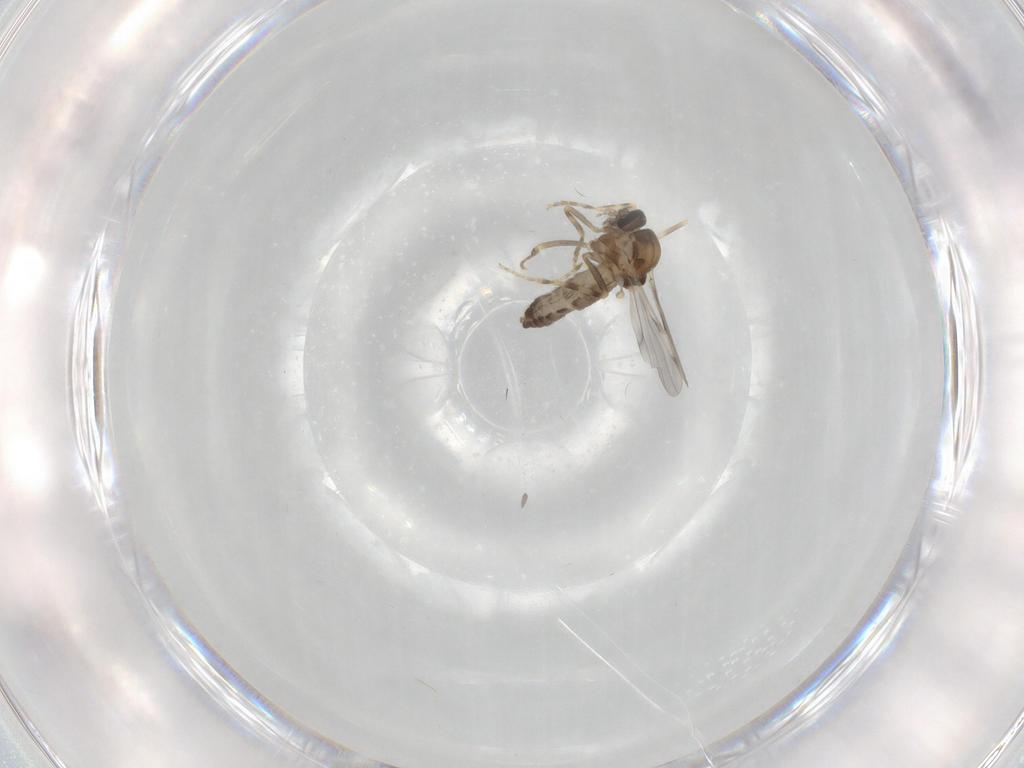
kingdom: Animalia
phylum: Arthropoda
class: Insecta
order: Diptera
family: Ceratopogonidae
